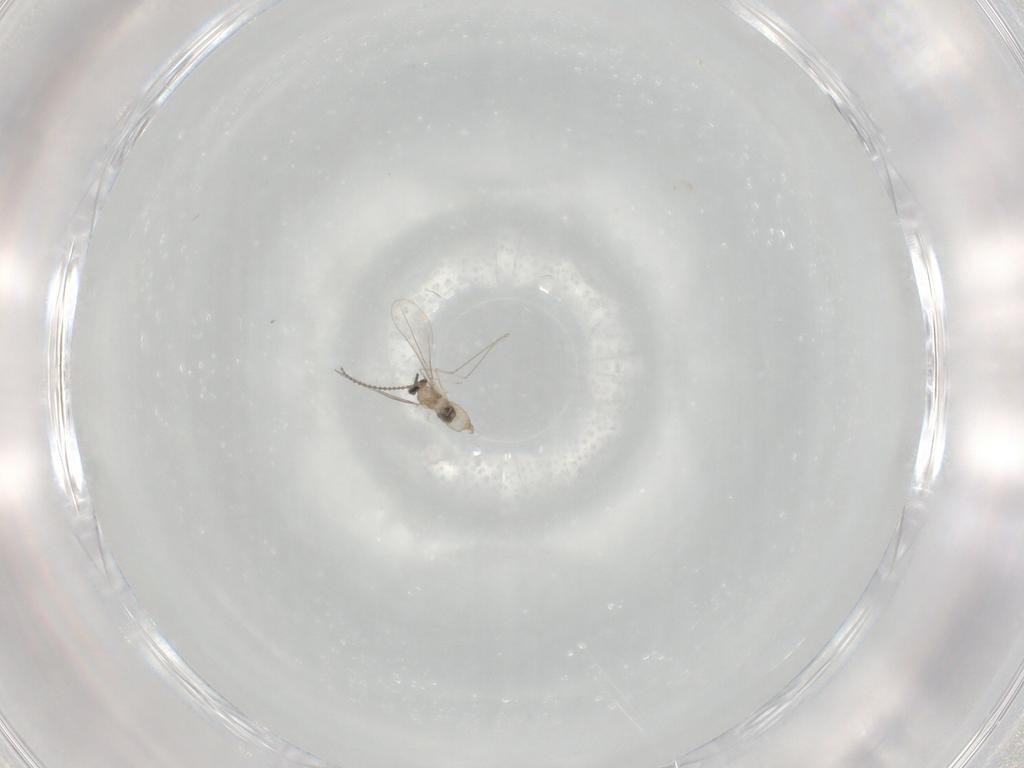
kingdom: Animalia
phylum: Arthropoda
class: Insecta
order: Diptera
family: Cecidomyiidae
